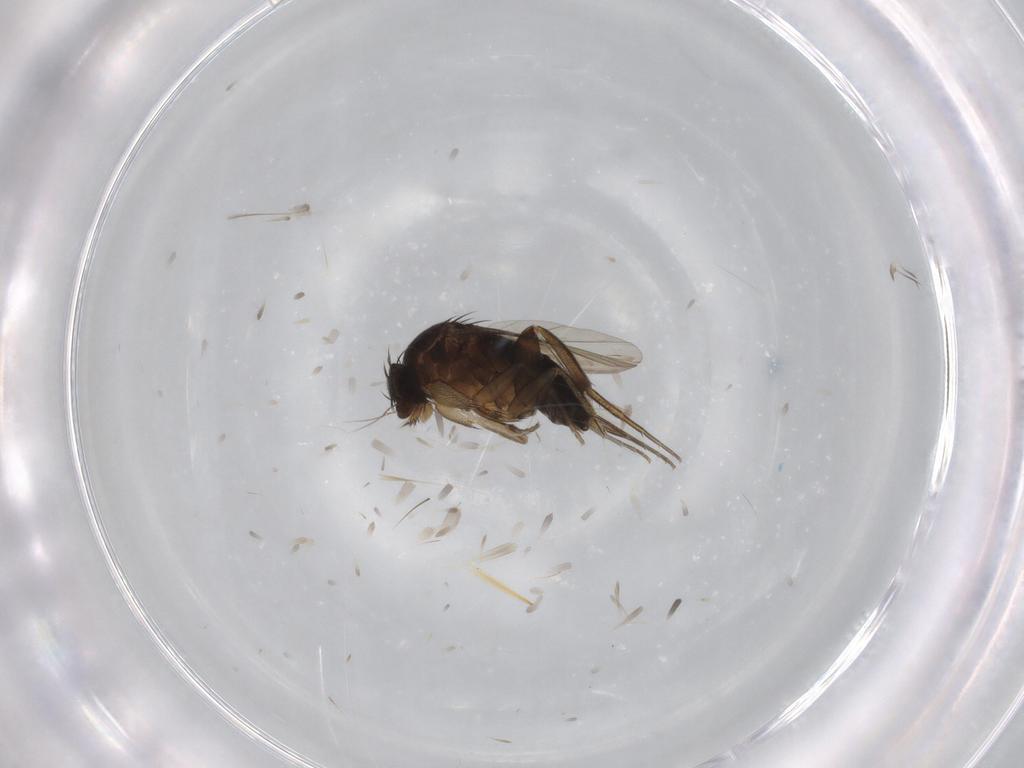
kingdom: Animalia
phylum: Arthropoda
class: Insecta
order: Diptera
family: Phoridae
